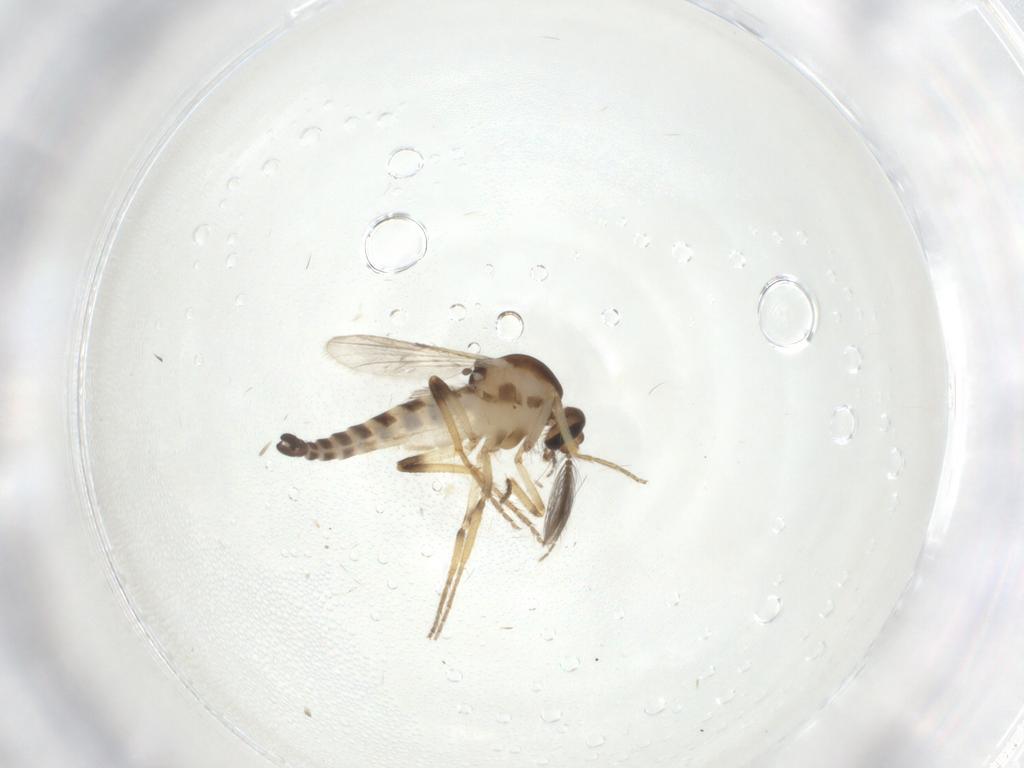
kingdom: Animalia
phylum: Arthropoda
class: Insecta
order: Diptera
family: Ceratopogonidae
